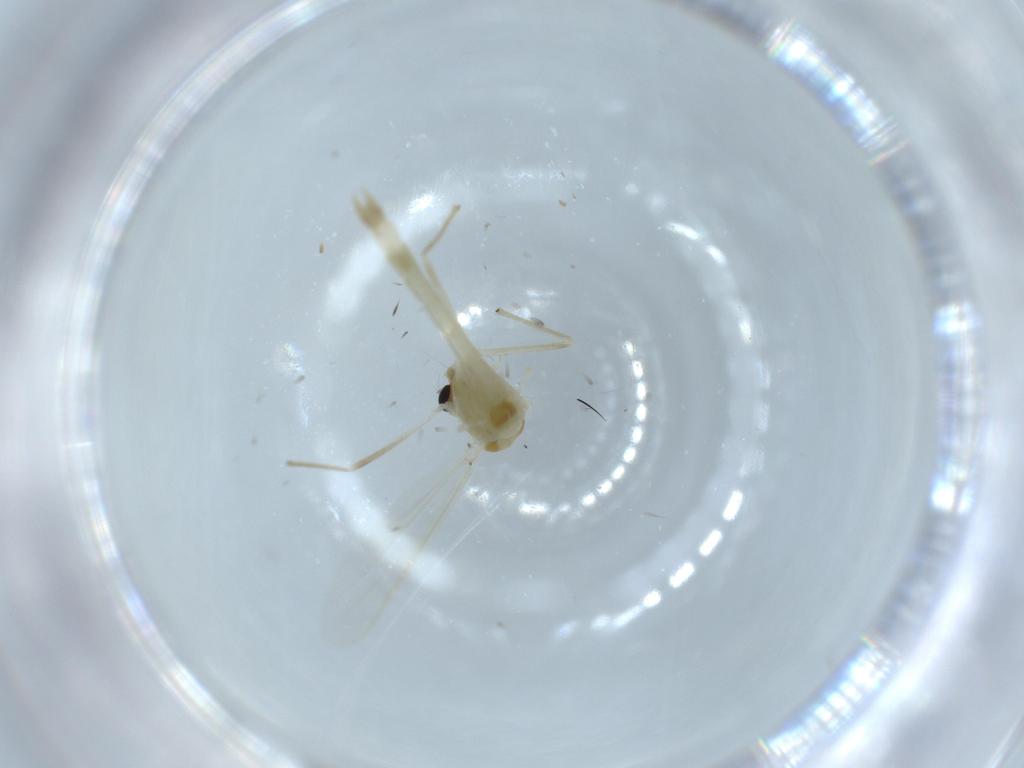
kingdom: Animalia
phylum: Arthropoda
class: Insecta
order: Diptera
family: Chironomidae
